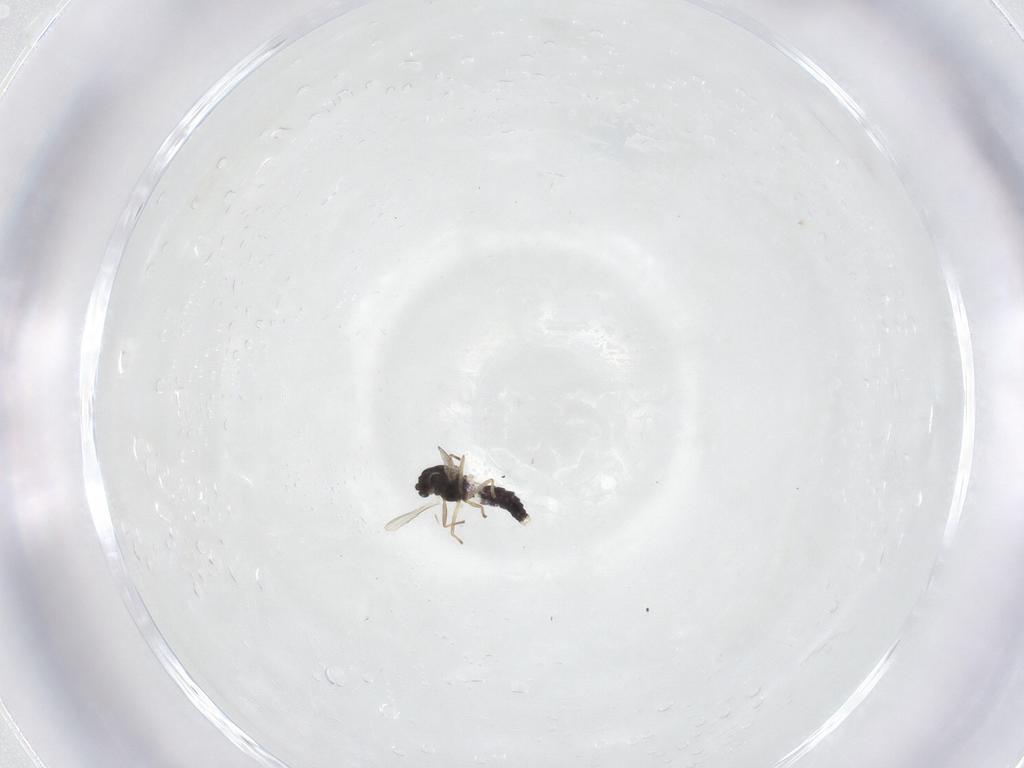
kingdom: Animalia
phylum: Arthropoda
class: Insecta
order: Diptera
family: Chironomidae
